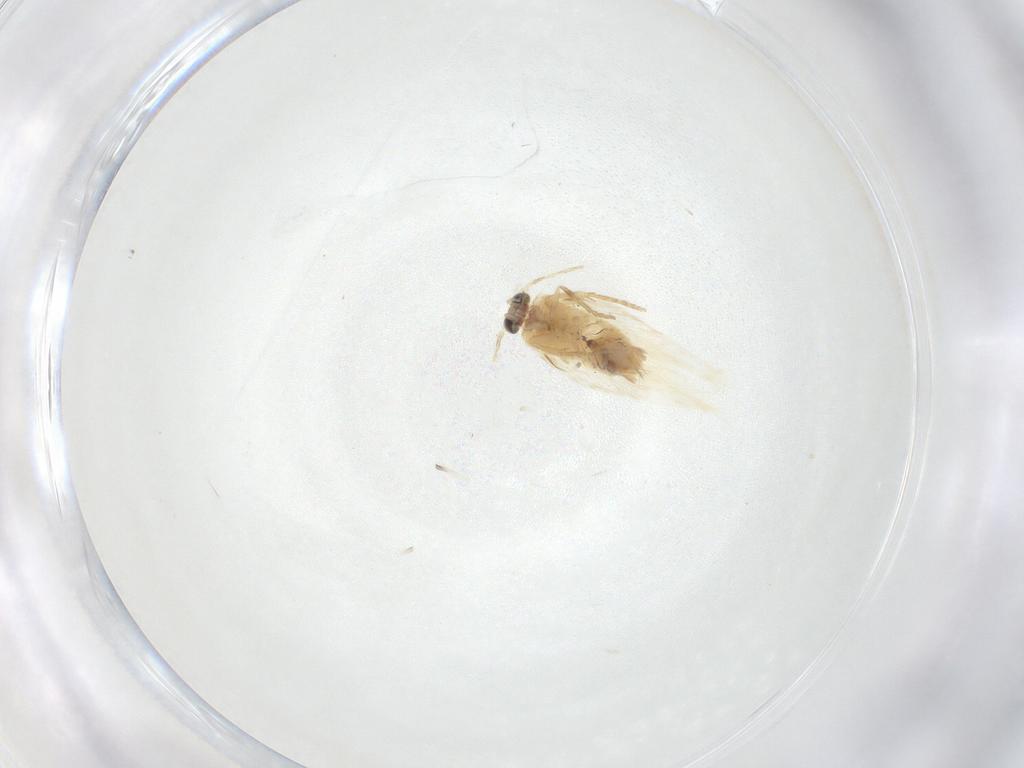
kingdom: Animalia
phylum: Arthropoda
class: Insecta
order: Lepidoptera
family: Nepticulidae
